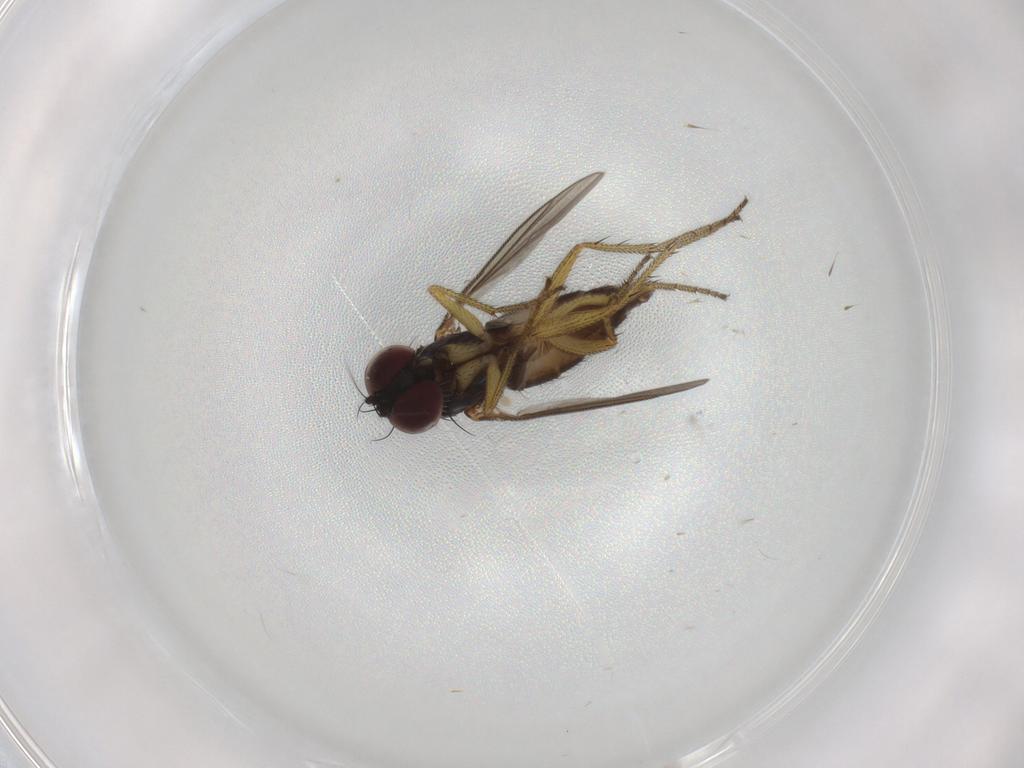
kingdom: Animalia
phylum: Arthropoda
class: Insecta
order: Diptera
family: Dolichopodidae
